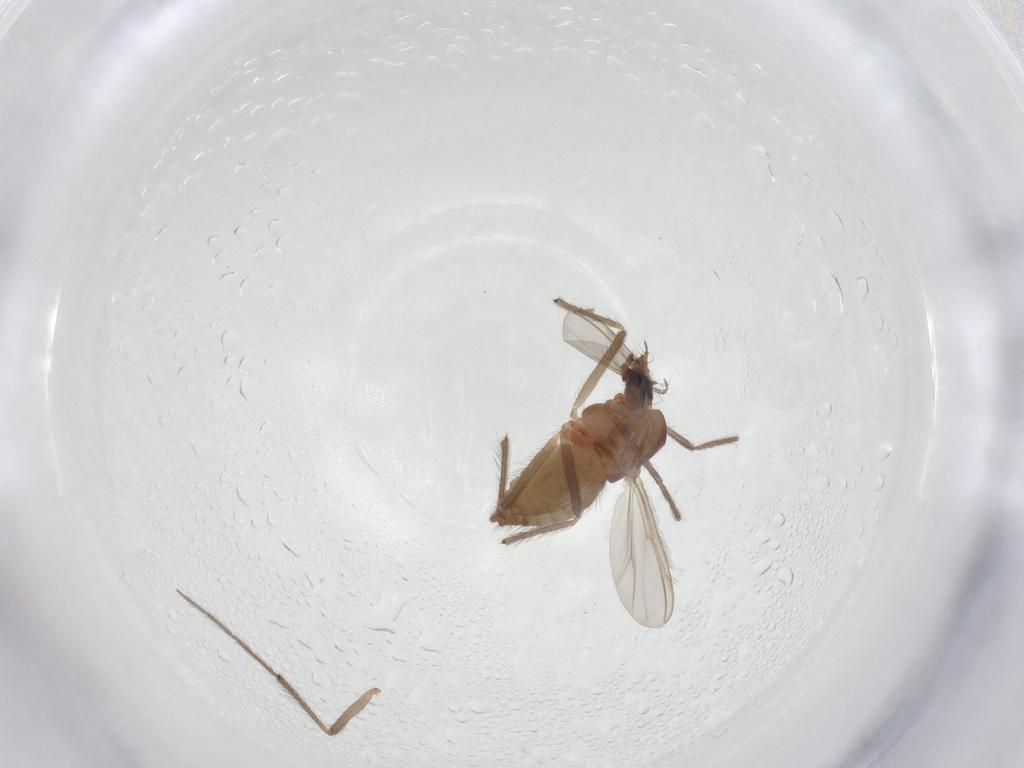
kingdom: Animalia
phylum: Arthropoda
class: Insecta
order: Diptera
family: Chironomidae
